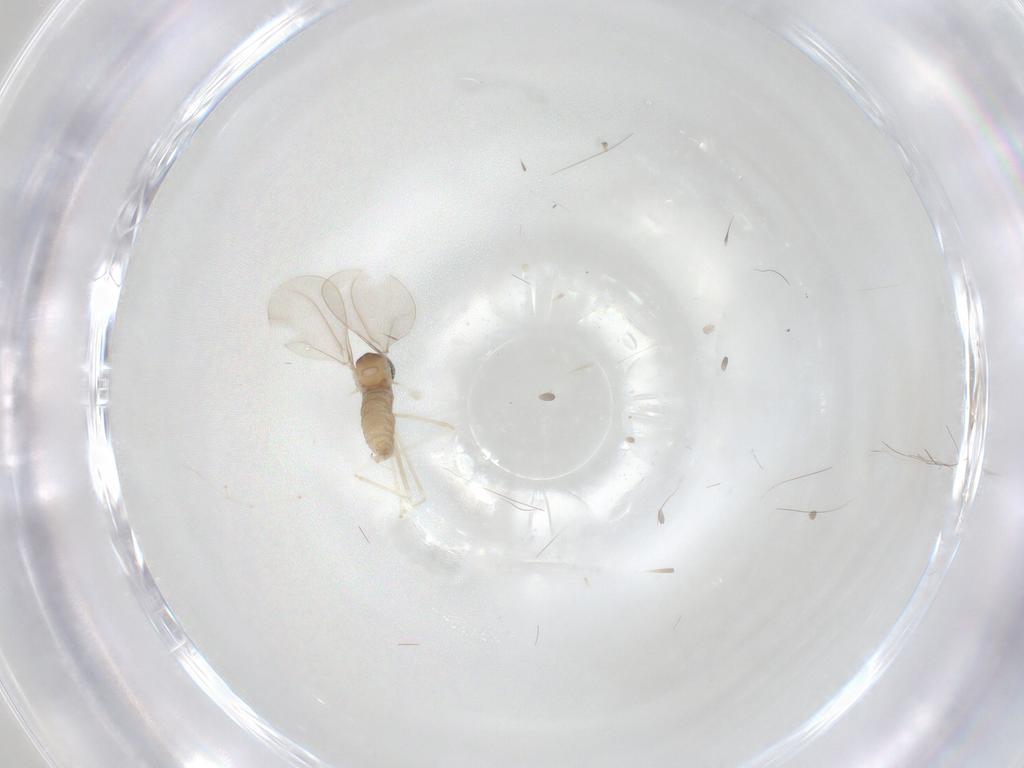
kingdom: Animalia
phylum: Arthropoda
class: Insecta
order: Diptera
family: Cecidomyiidae
